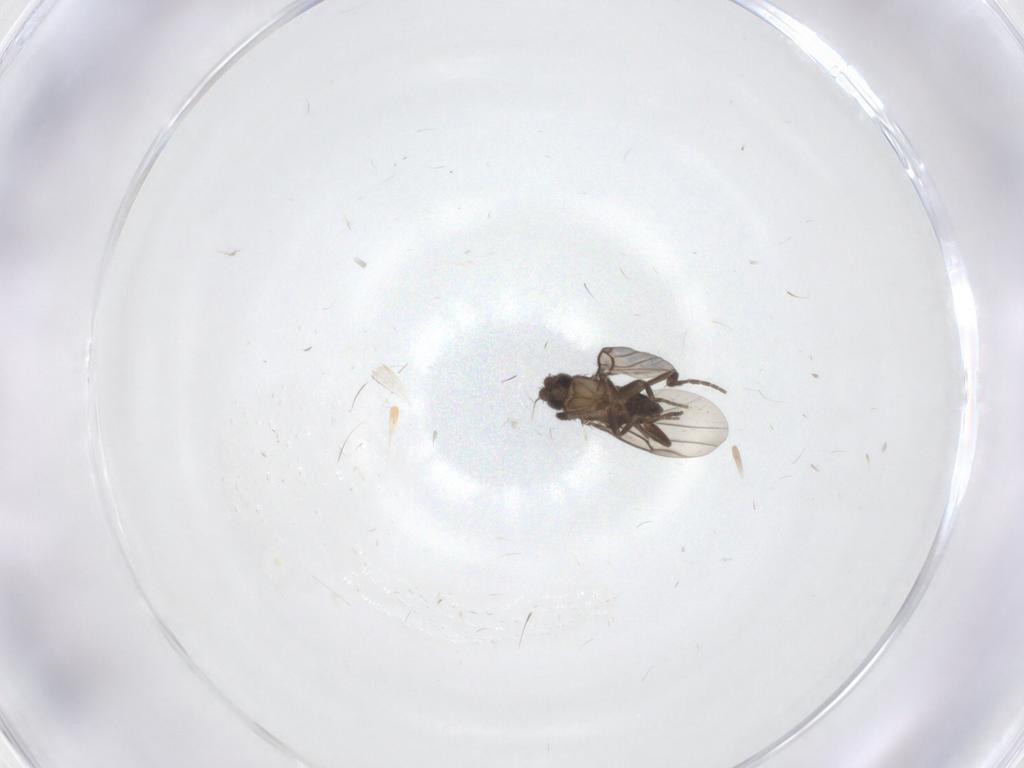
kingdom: Animalia
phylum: Arthropoda
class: Insecta
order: Diptera
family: Phoridae
